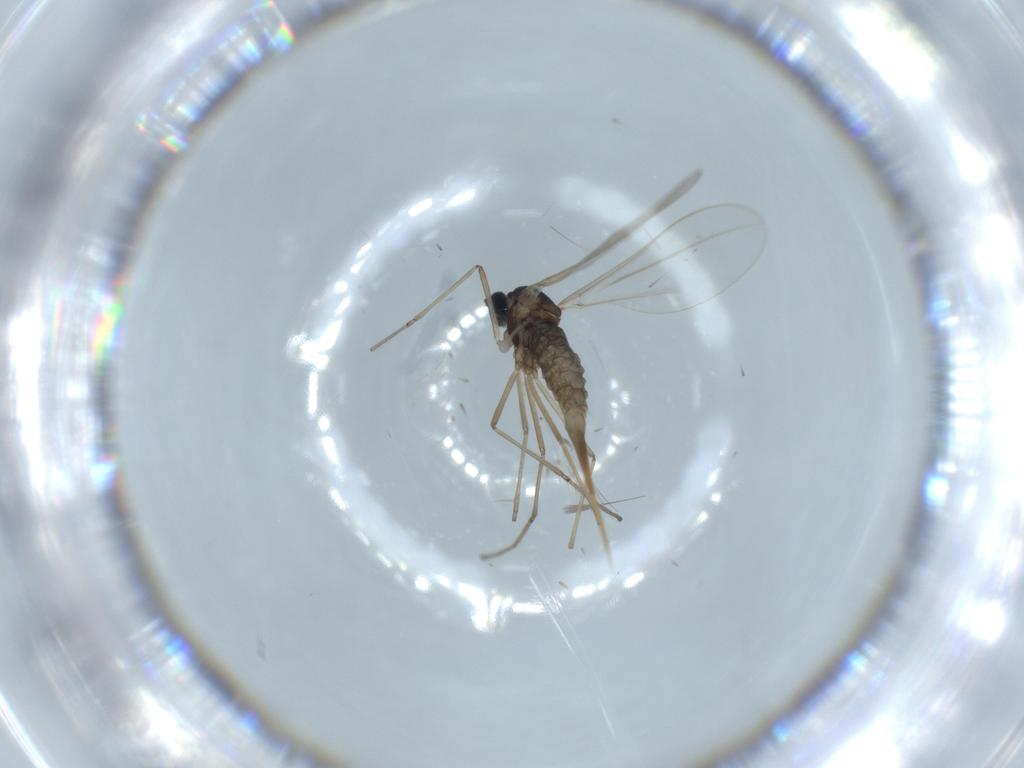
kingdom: Animalia
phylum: Arthropoda
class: Insecta
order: Diptera
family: Cecidomyiidae
